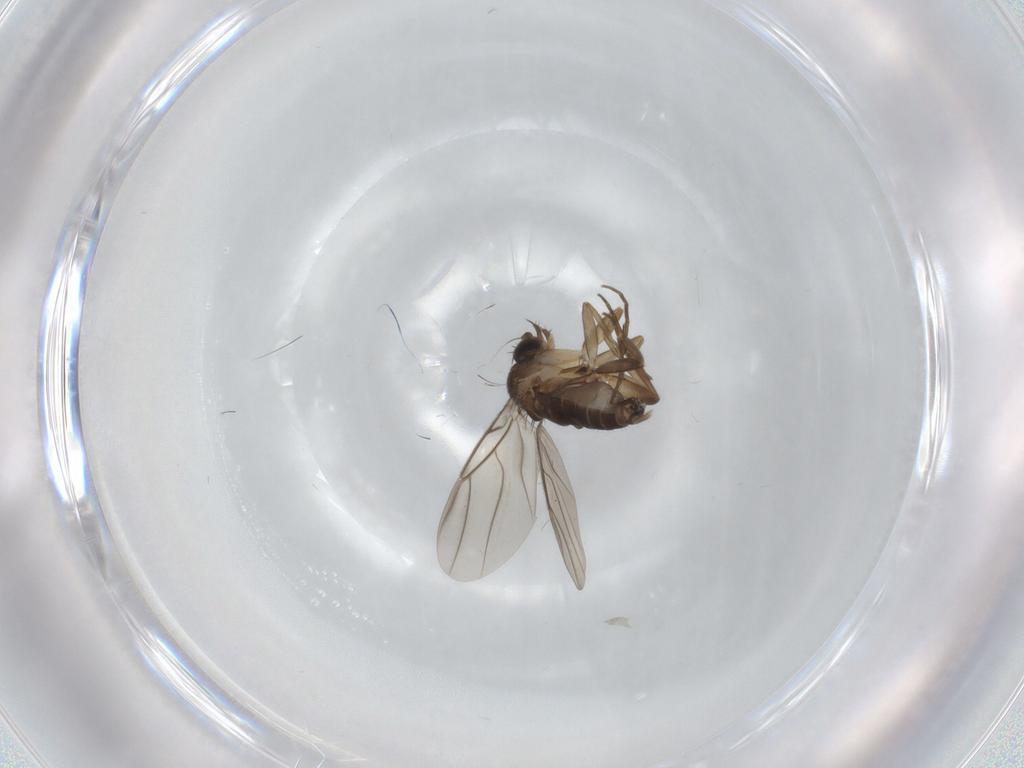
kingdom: Animalia
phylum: Arthropoda
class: Insecta
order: Diptera
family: Phoridae
